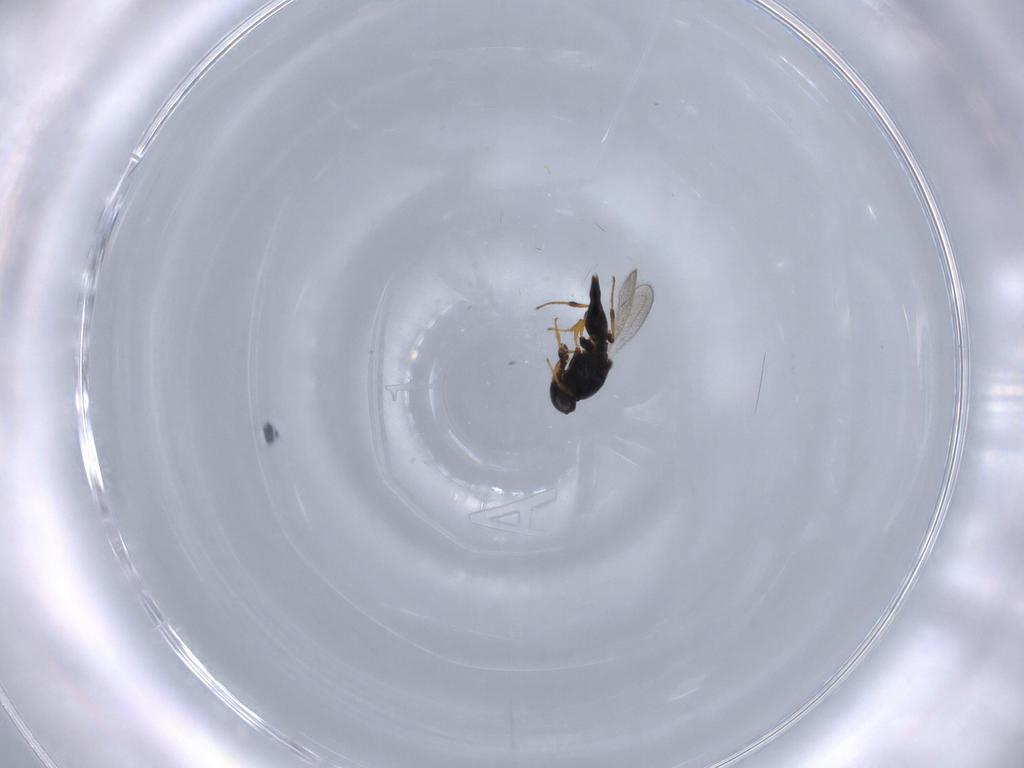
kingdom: Animalia
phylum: Arthropoda
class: Insecta
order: Hymenoptera
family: Platygastridae
